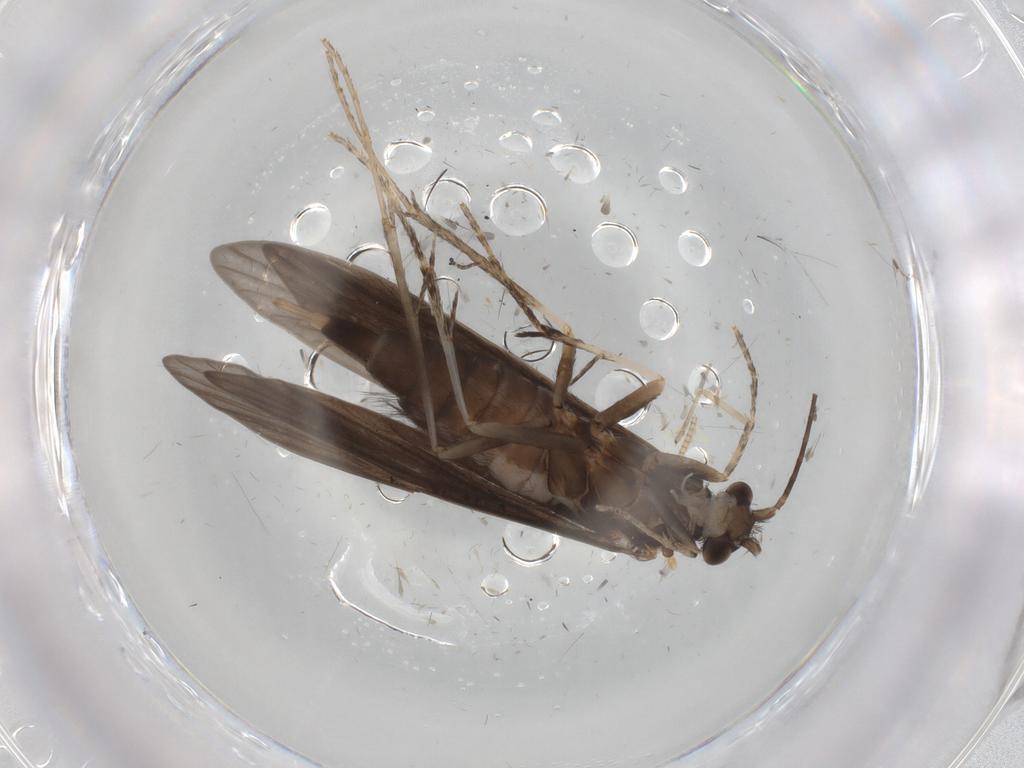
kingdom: Animalia
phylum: Arthropoda
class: Insecta
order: Trichoptera
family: Xiphocentronidae
